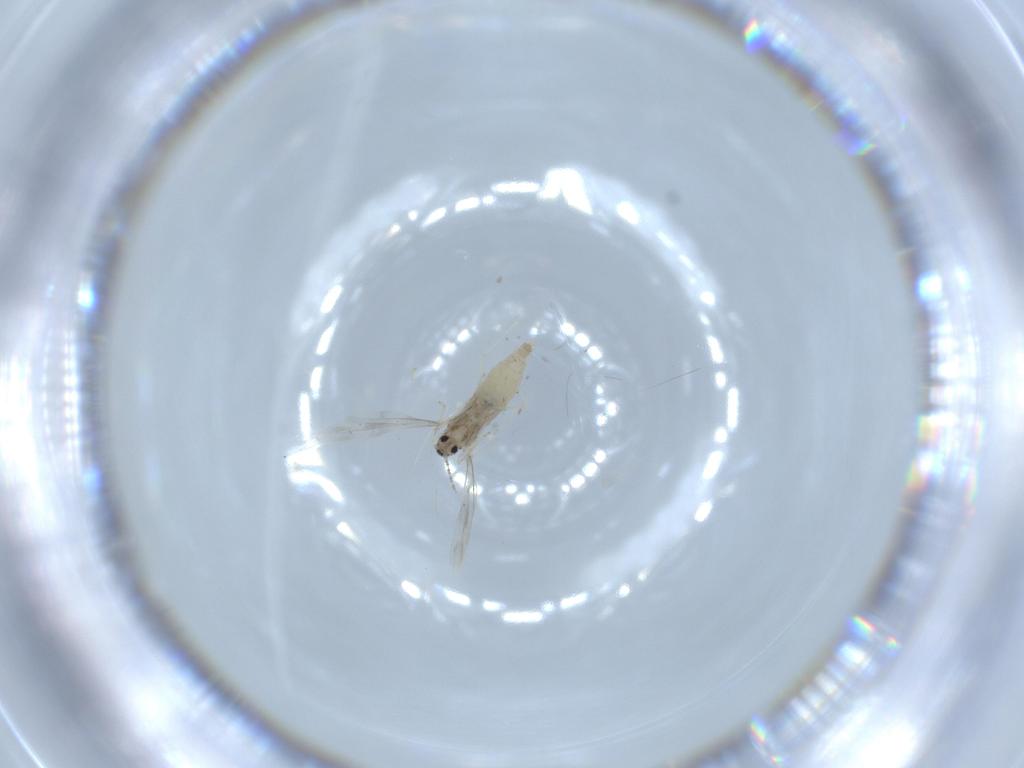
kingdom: Animalia
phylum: Arthropoda
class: Insecta
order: Diptera
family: Cecidomyiidae
